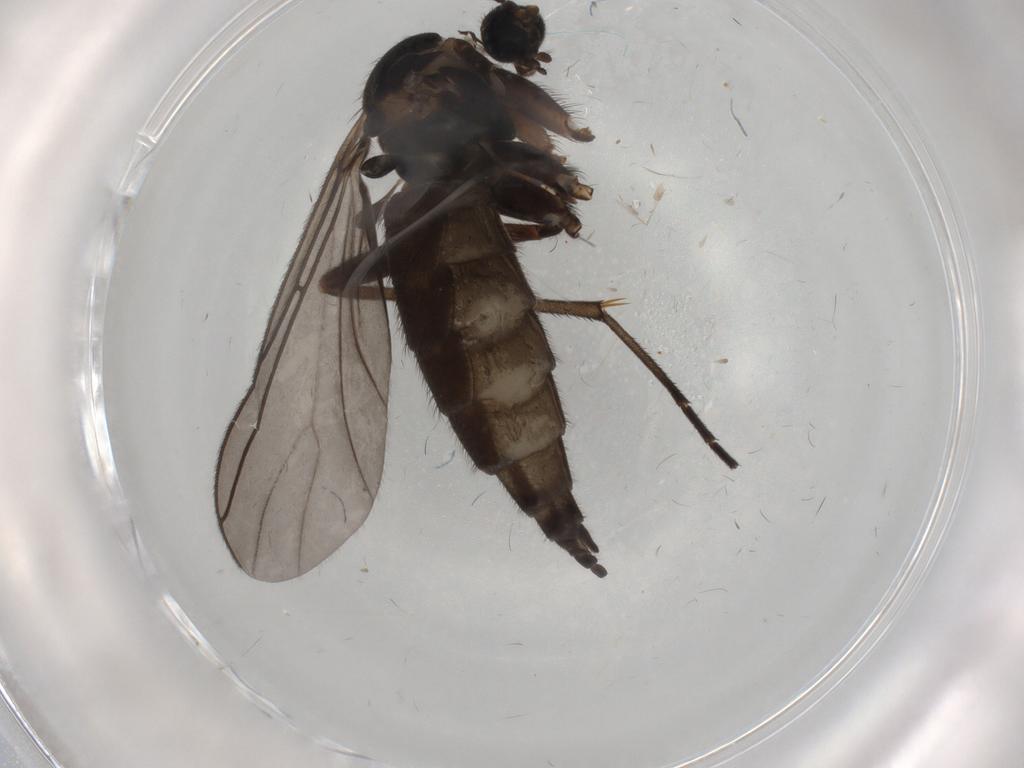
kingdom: Animalia
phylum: Arthropoda
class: Insecta
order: Diptera
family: Sciaridae
